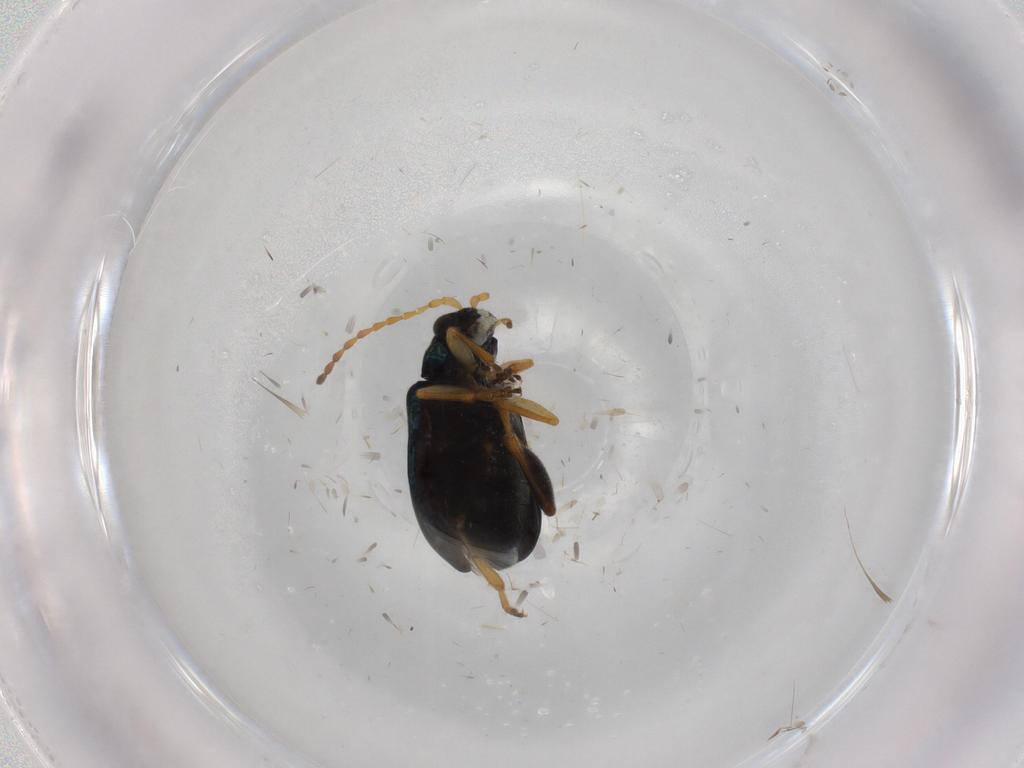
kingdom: Animalia
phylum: Arthropoda
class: Insecta
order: Coleoptera
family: Chrysomelidae
